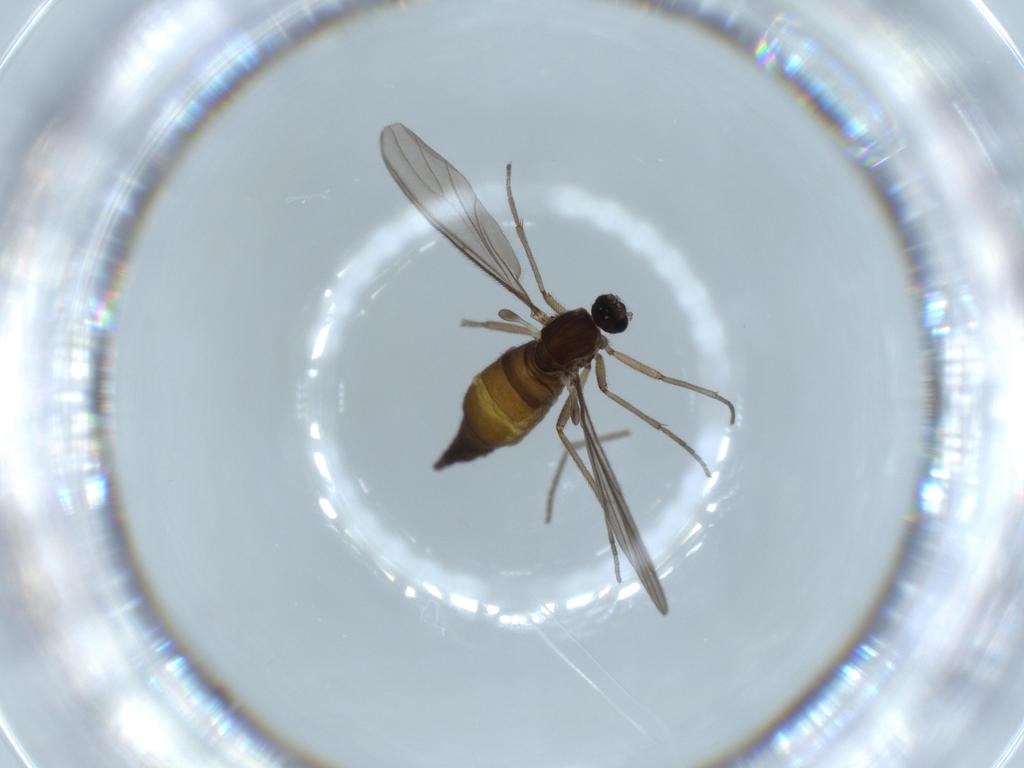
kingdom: Animalia
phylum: Arthropoda
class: Insecta
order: Diptera
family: Sciaridae
